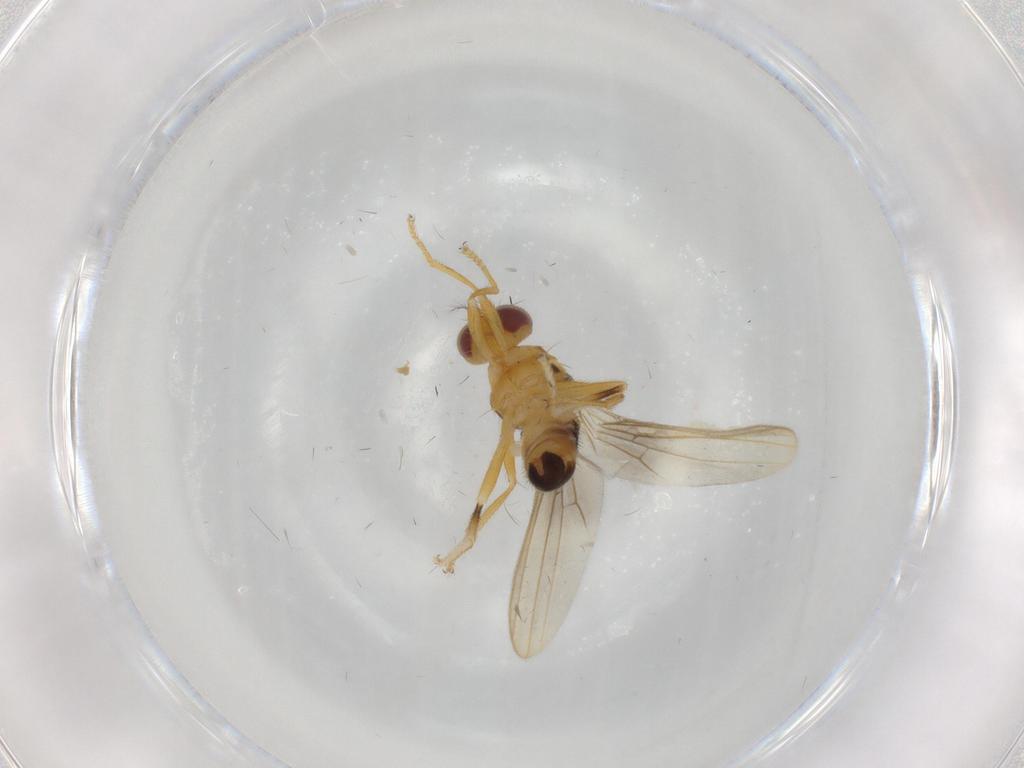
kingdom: Animalia
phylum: Arthropoda
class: Insecta
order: Diptera
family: Periscelididae
